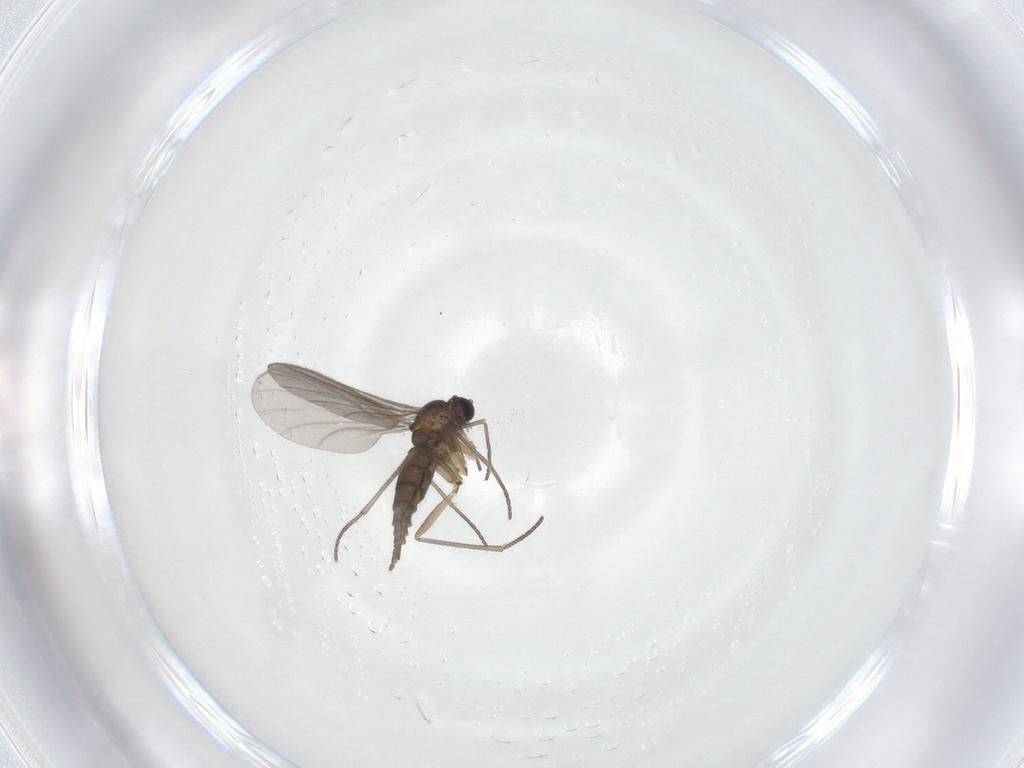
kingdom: Animalia
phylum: Arthropoda
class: Insecta
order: Diptera
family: Sciaridae
